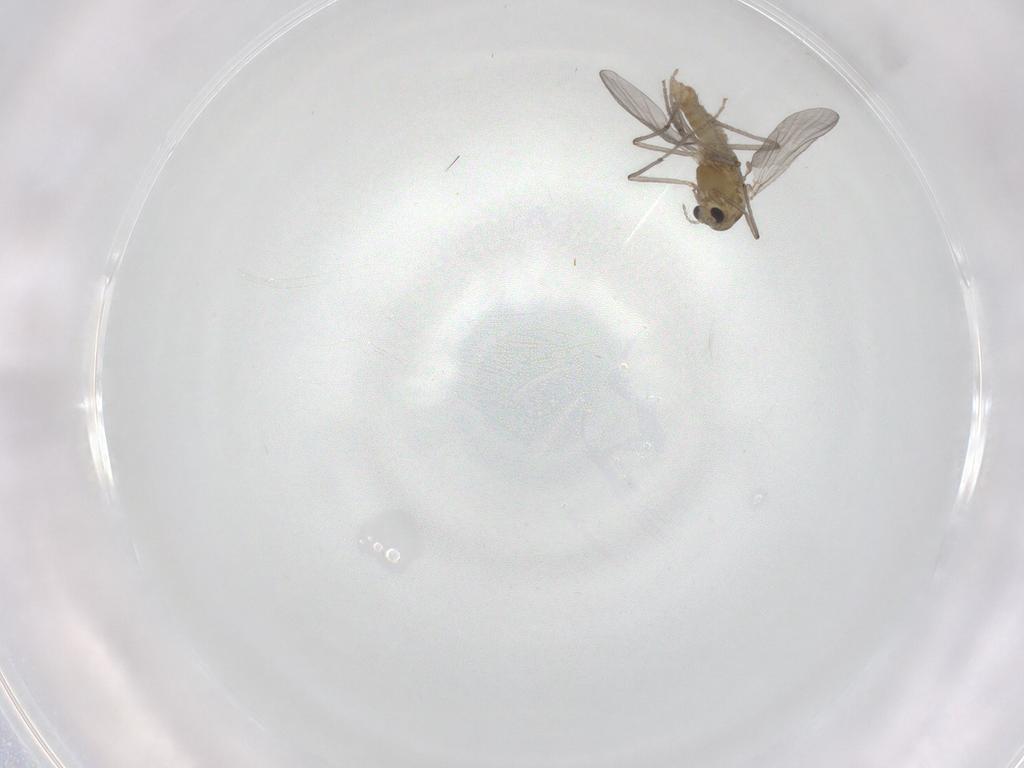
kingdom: Animalia
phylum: Arthropoda
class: Insecta
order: Diptera
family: Chironomidae
